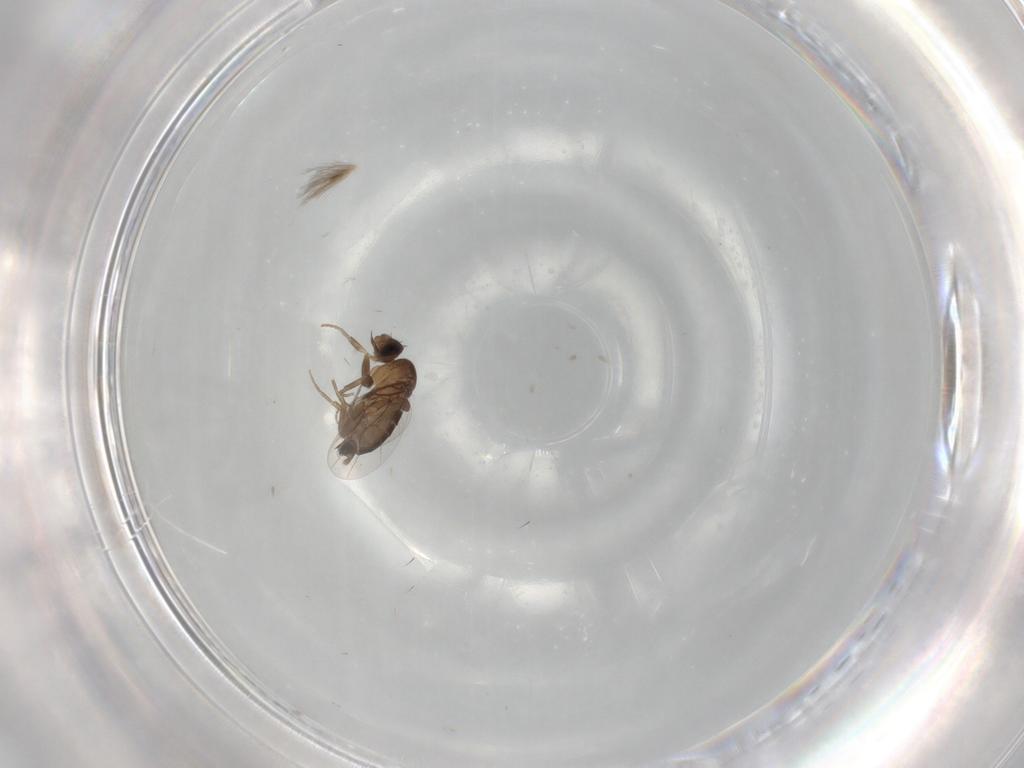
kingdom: Animalia
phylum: Arthropoda
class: Insecta
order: Diptera
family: Phoridae
